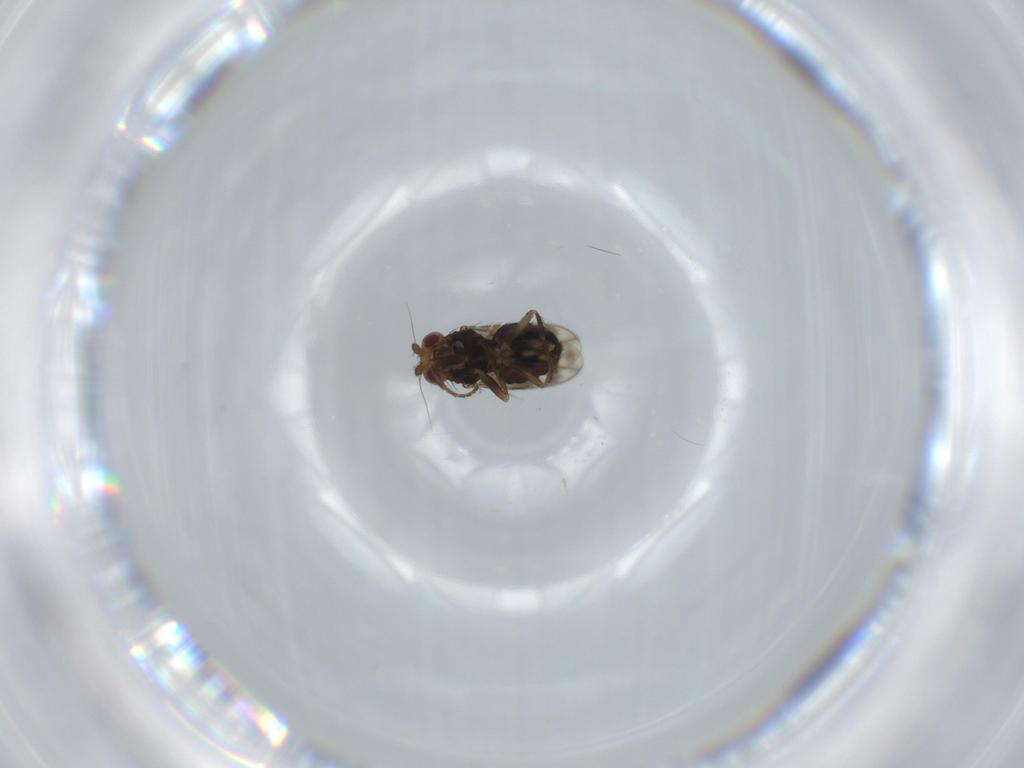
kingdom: Animalia
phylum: Arthropoda
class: Insecta
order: Diptera
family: Sphaeroceridae
